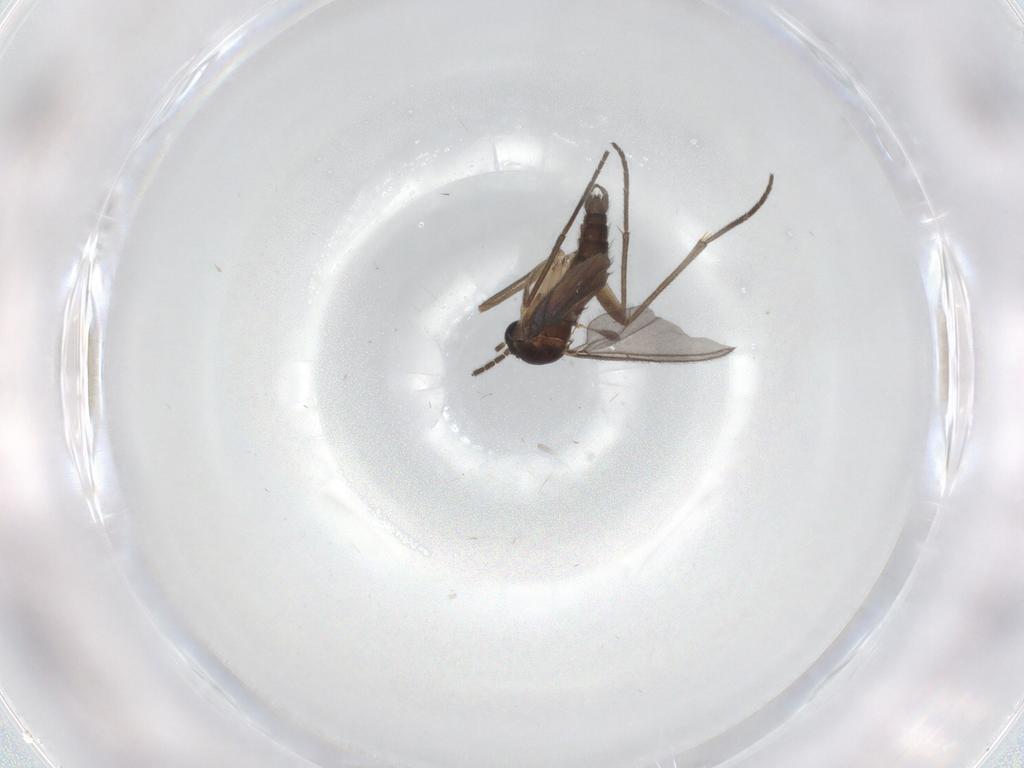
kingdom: Animalia
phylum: Arthropoda
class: Insecta
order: Diptera
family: Sciaridae
